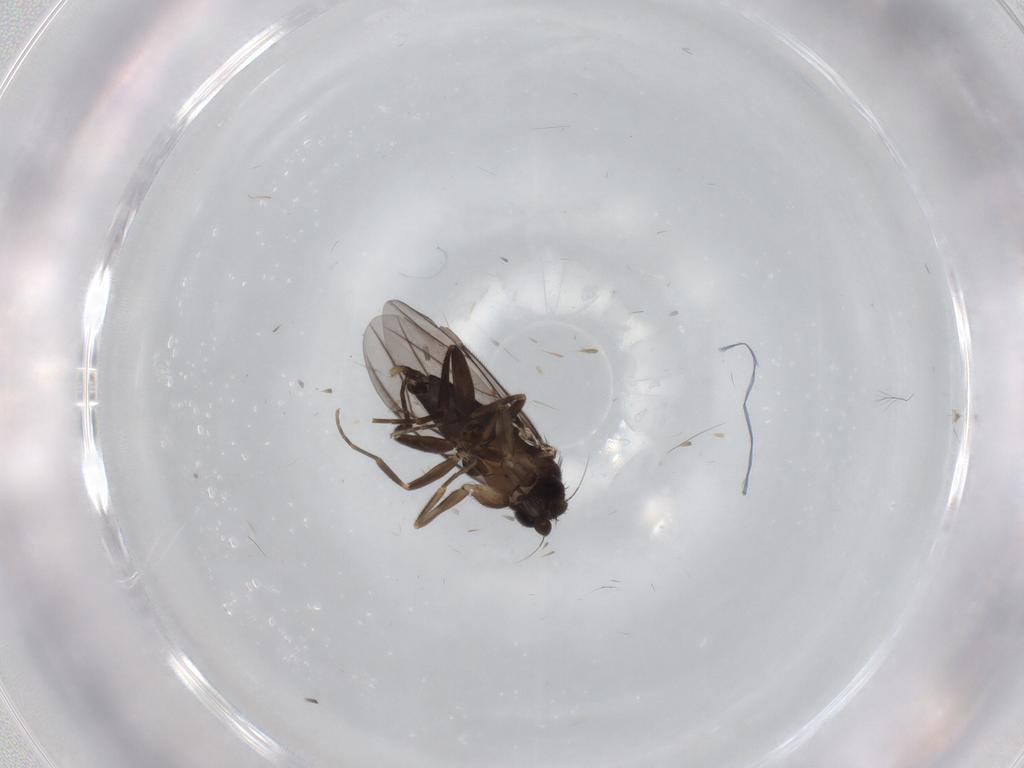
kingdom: Animalia
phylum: Arthropoda
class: Insecta
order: Diptera
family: Phoridae
